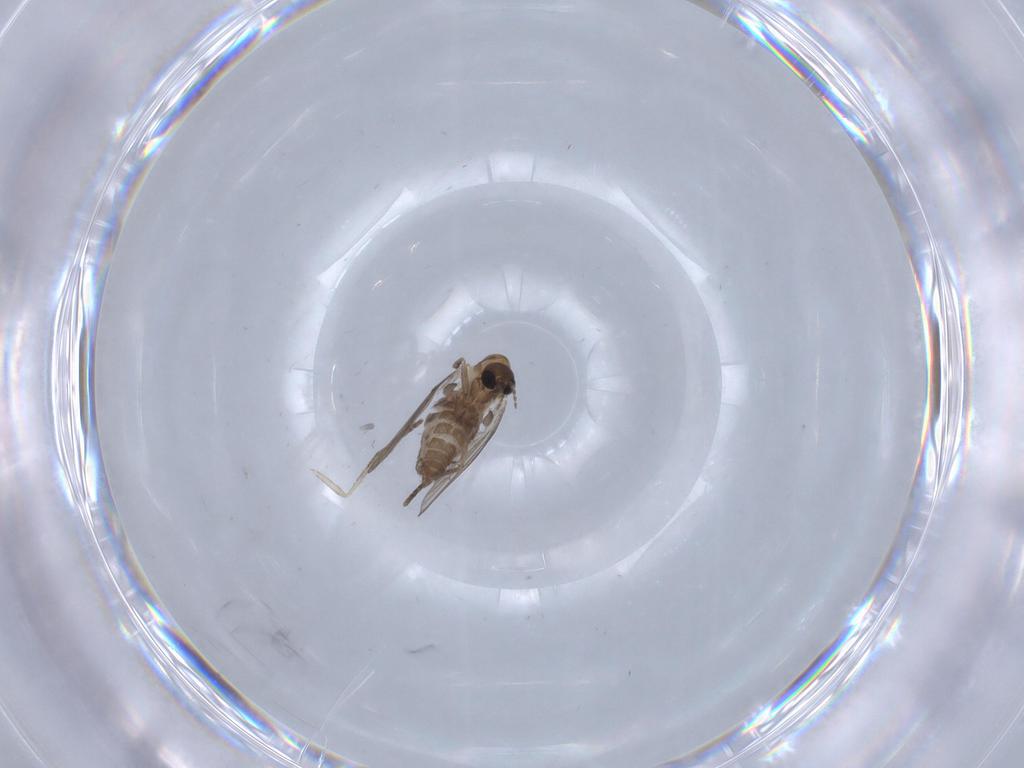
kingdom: Animalia
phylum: Arthropoda
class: Insecta
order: Diptera
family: Psychodidae
